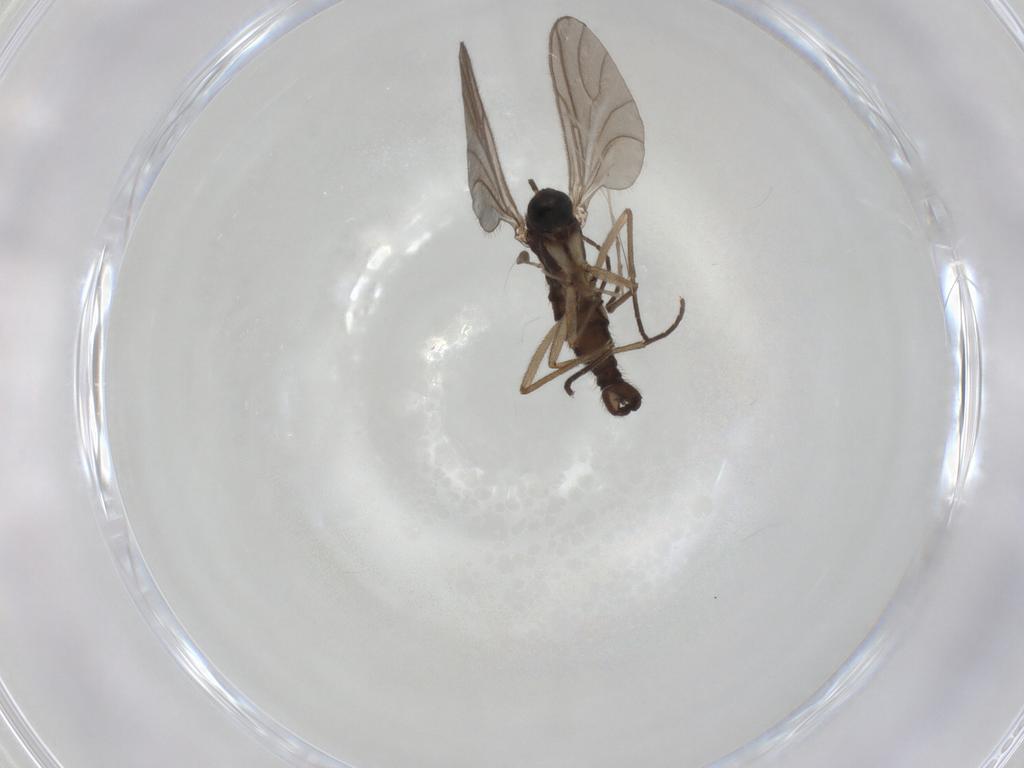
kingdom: Animalia
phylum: Arthropoda
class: Insecta
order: Diptera
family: Sciaridae
